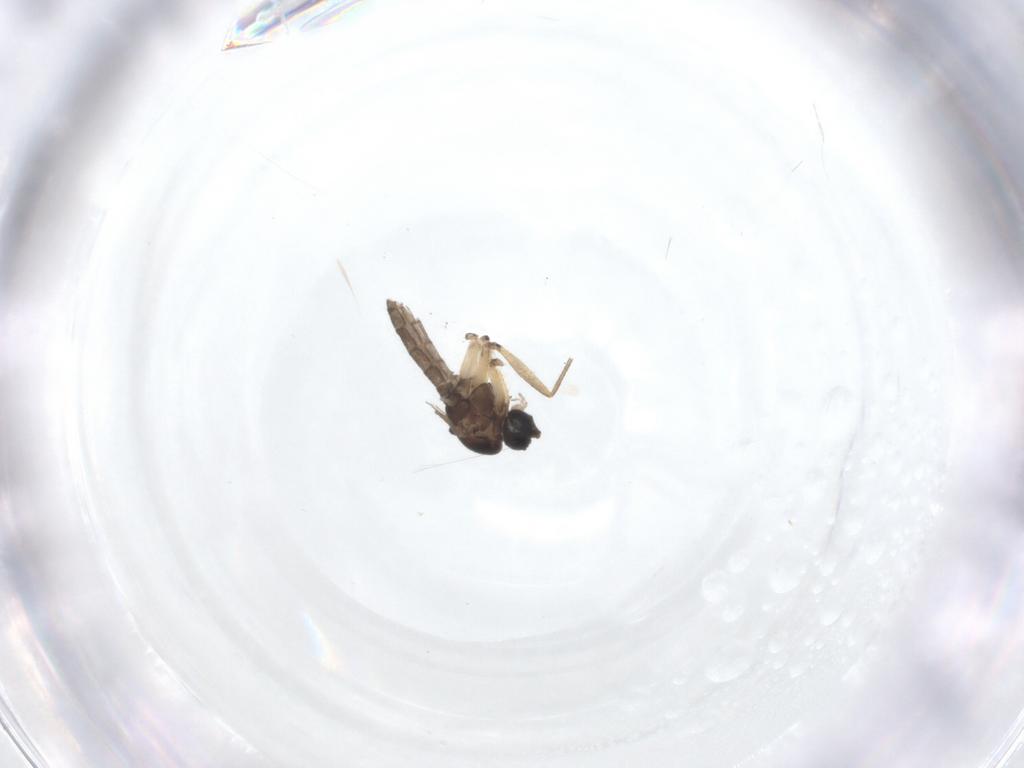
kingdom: Animalia
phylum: Arthropoda
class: Insecta
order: Diptera
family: Sciaridae
